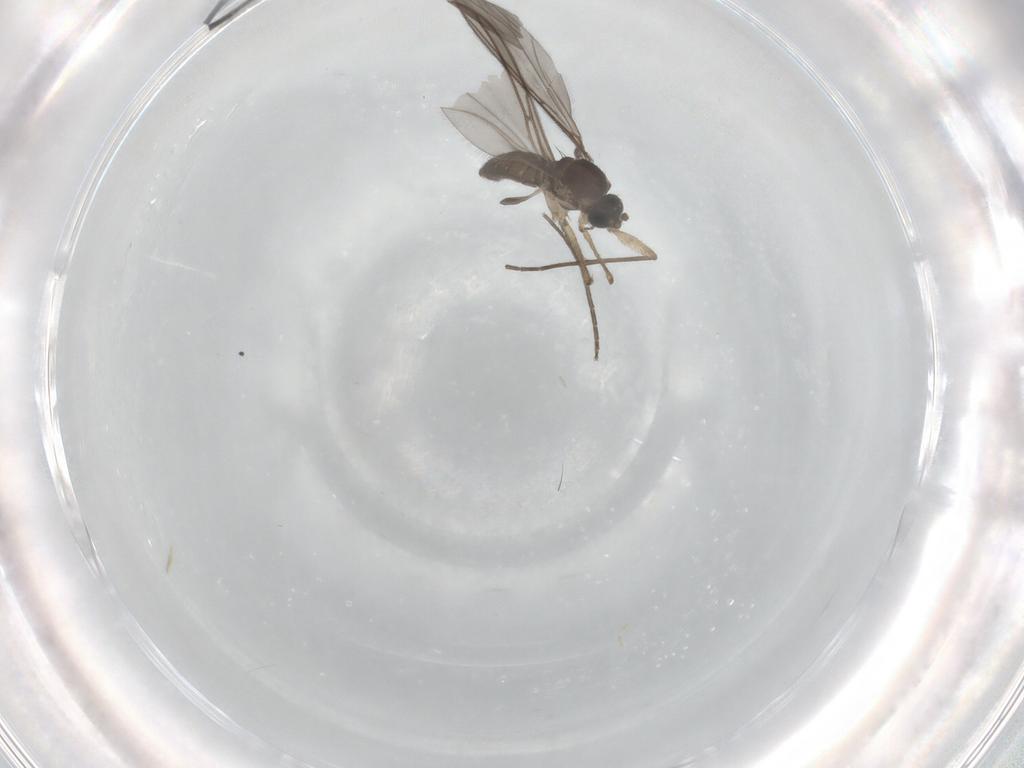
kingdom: Animalia
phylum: Arthropoda
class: Insecta
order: Diptera
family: Sciaridae
